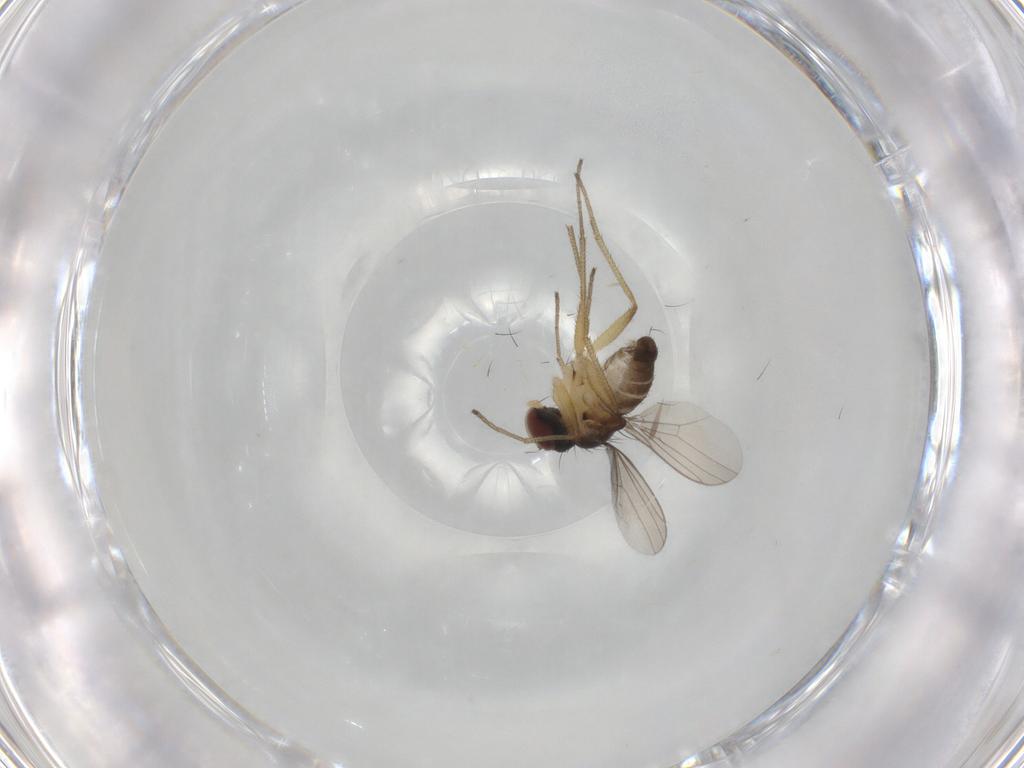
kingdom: Animalia
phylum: Arthropoda
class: Insecta
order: Diptera
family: Dolichopodidae
